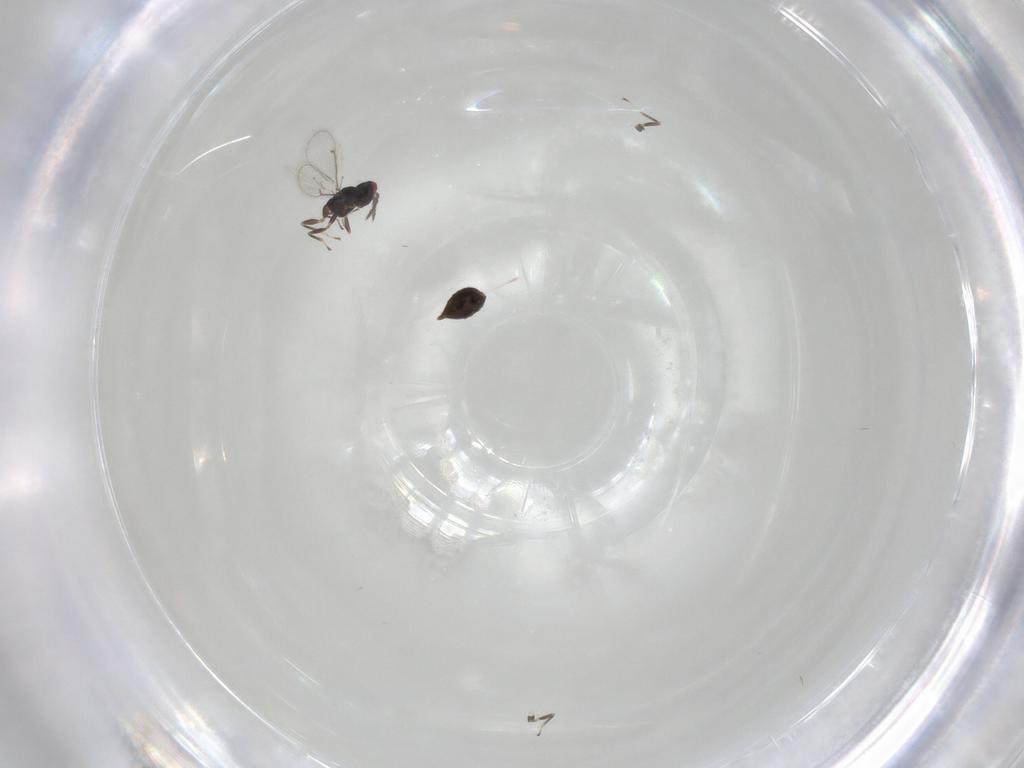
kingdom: Animalia
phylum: Arthropoda
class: Insecta
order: Hymenoptera
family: Eulophidae
